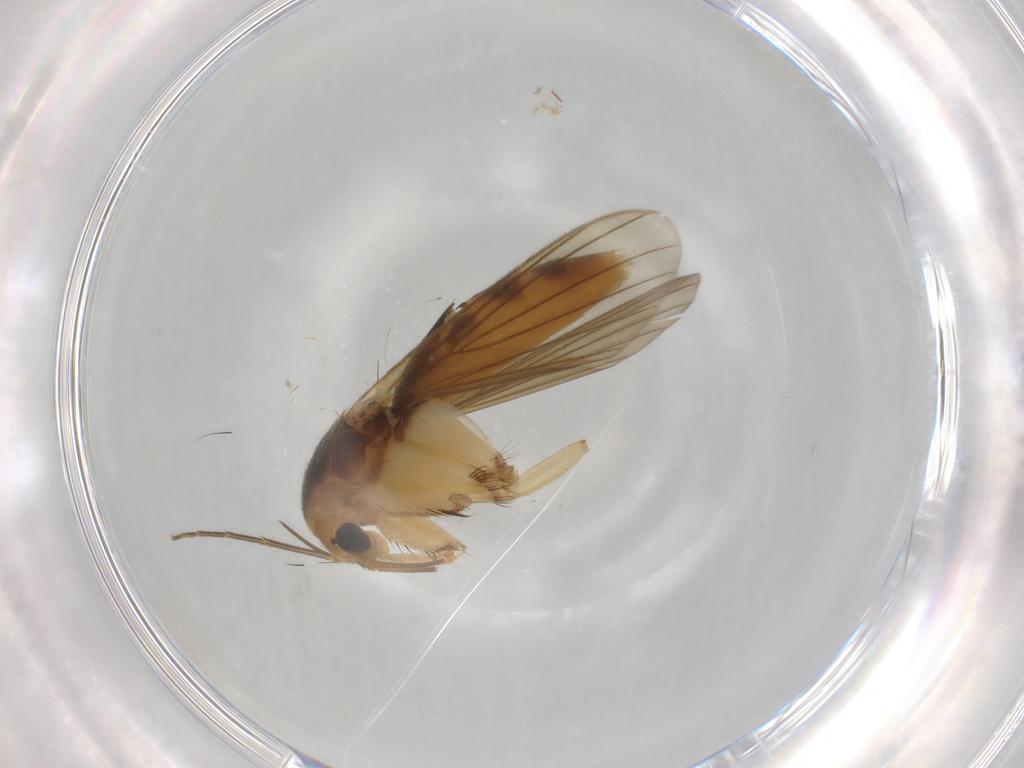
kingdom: Animalia
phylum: Arthropoda
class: Insecta
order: Diptera
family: Mycetophilidae
